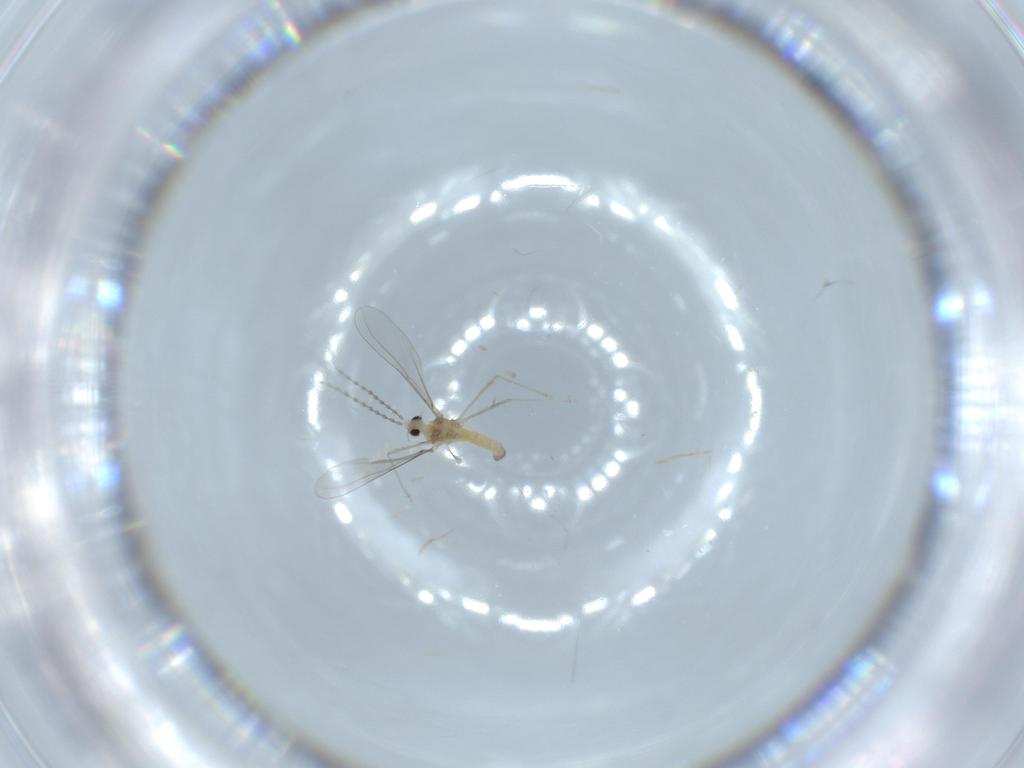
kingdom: Animalia
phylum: Arthropoda
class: Insecta
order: Diptera
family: Cecidomyiidae
